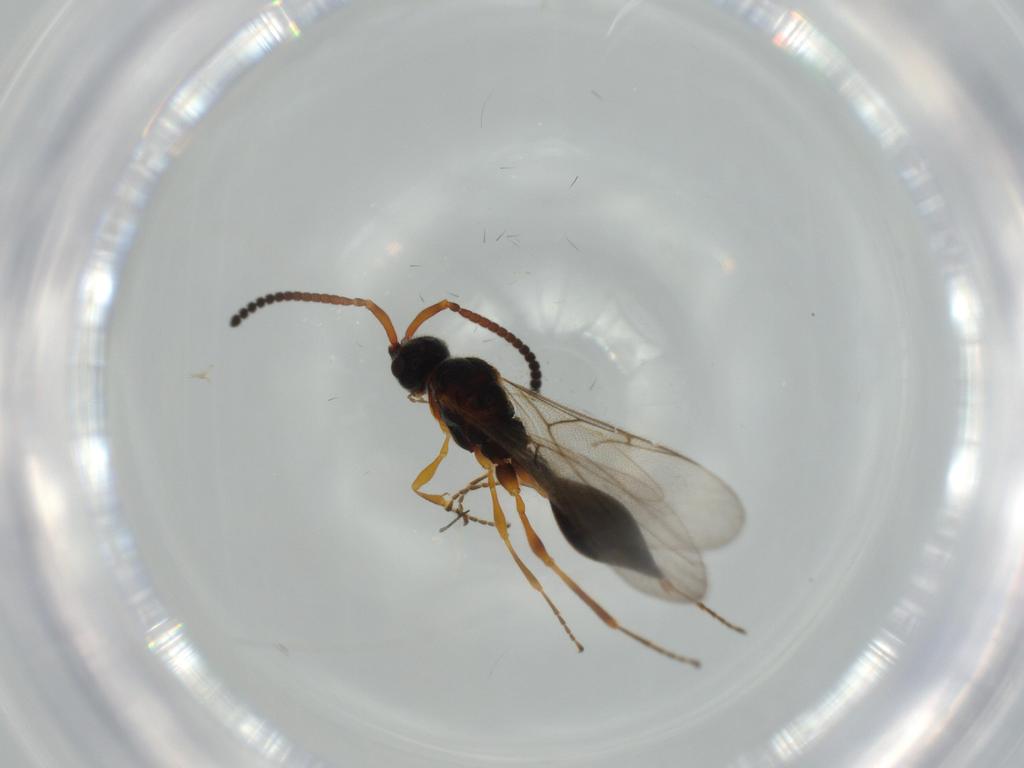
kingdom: Animalia
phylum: Arthropoda
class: Insecta
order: Hymenoptera
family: Diapriidae
